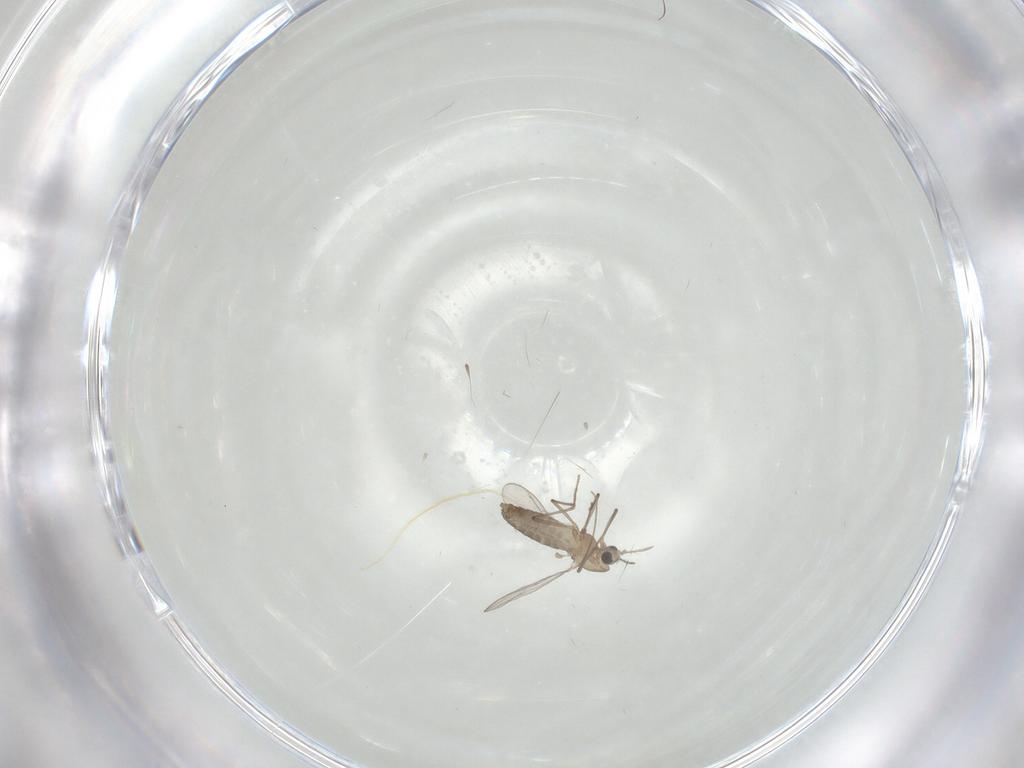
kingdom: Animalia
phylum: Arthropoda
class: Insecta
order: Diptera
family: Chironomidae
